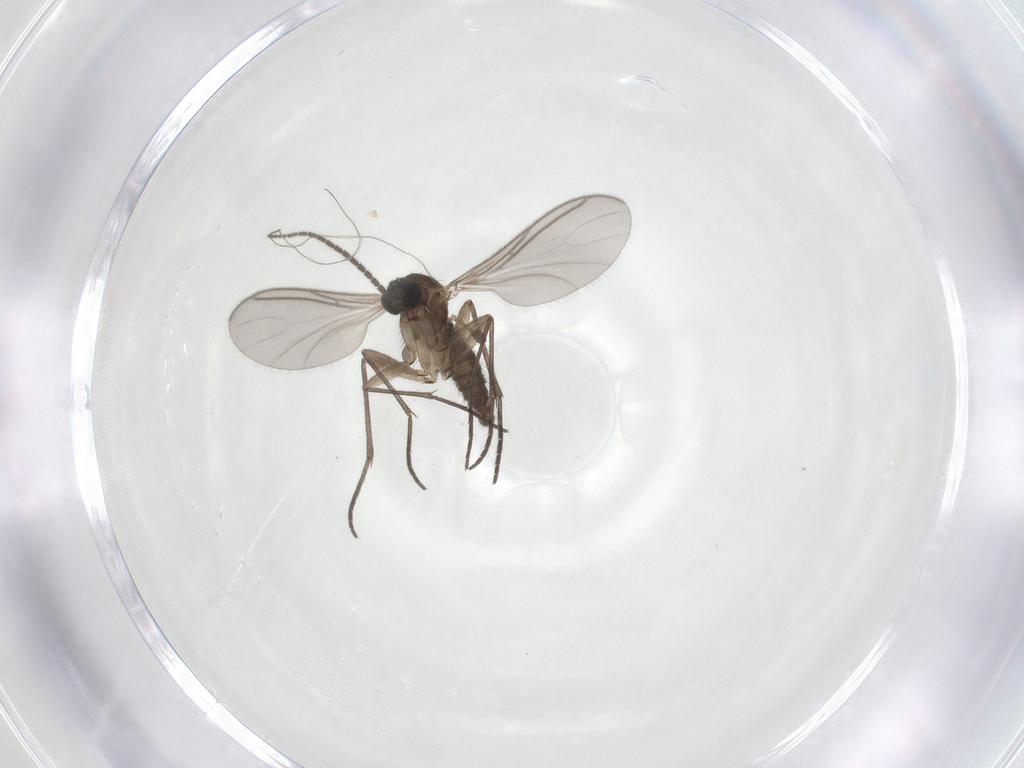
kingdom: Animalia
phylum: Arthropoda
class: Insecta
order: Diptera
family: Sciaridae
